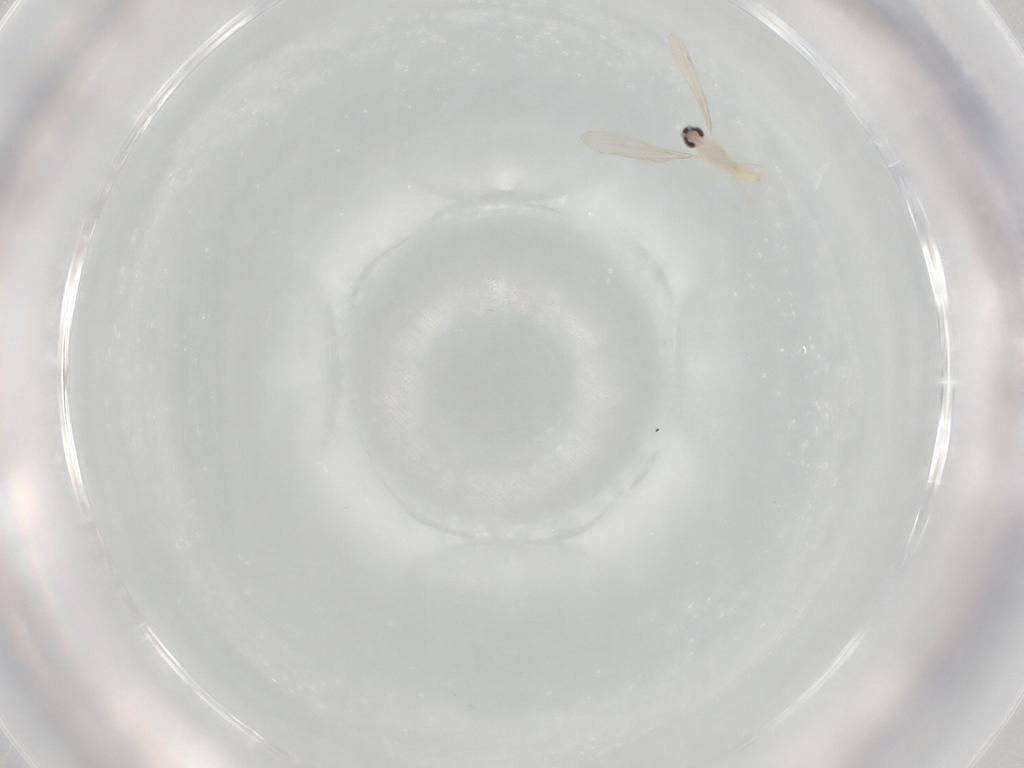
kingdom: Animalia
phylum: Arthropoda
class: Insecta
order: Diptera
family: Cecidomyiidae
